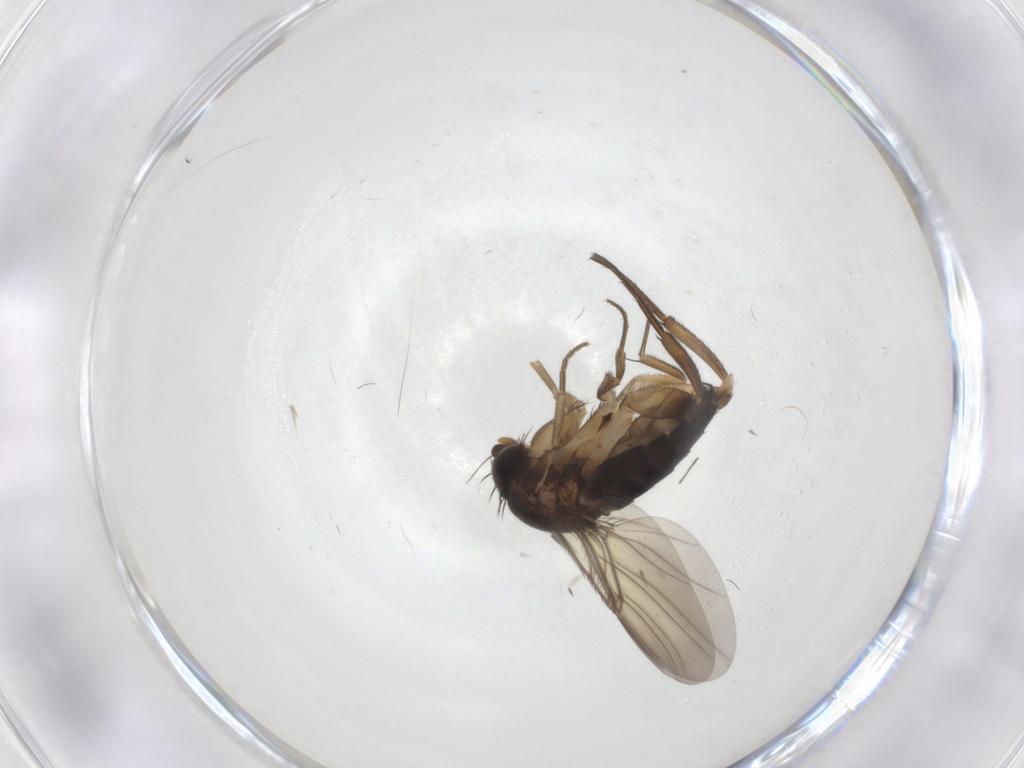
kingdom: Animalia
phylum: Arthropoda
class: Insecta
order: Diptera
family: Phoridae
